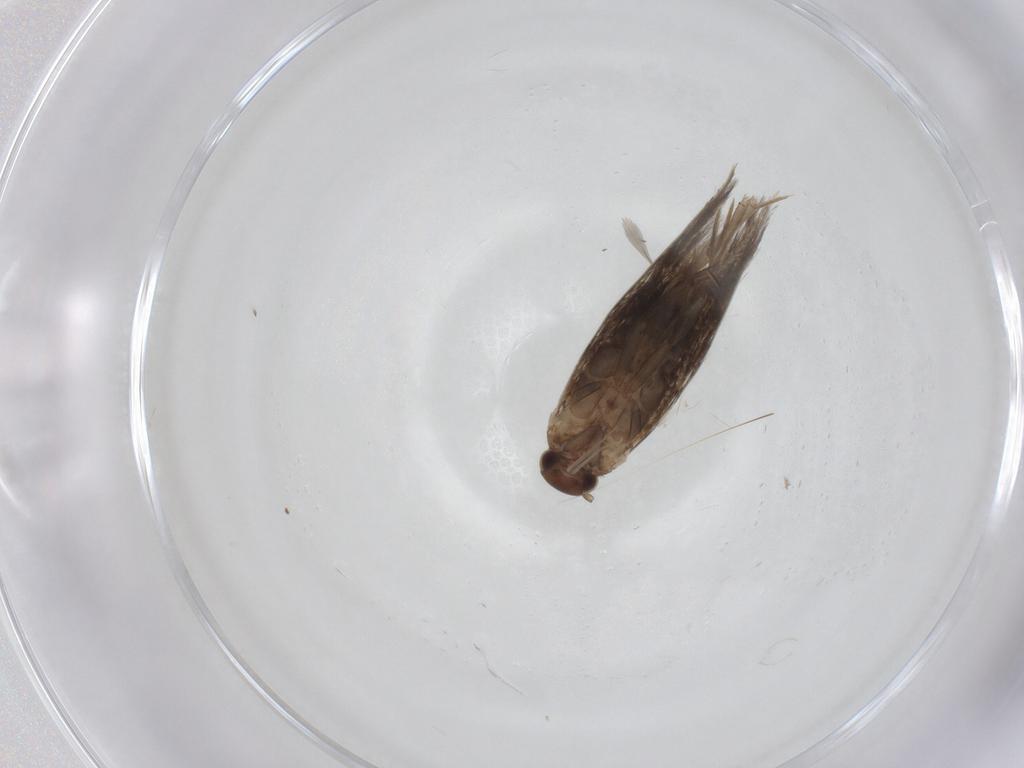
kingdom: Animalia
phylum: Arthropoda
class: Insecta
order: Lepidoptera
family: Elachistidae
